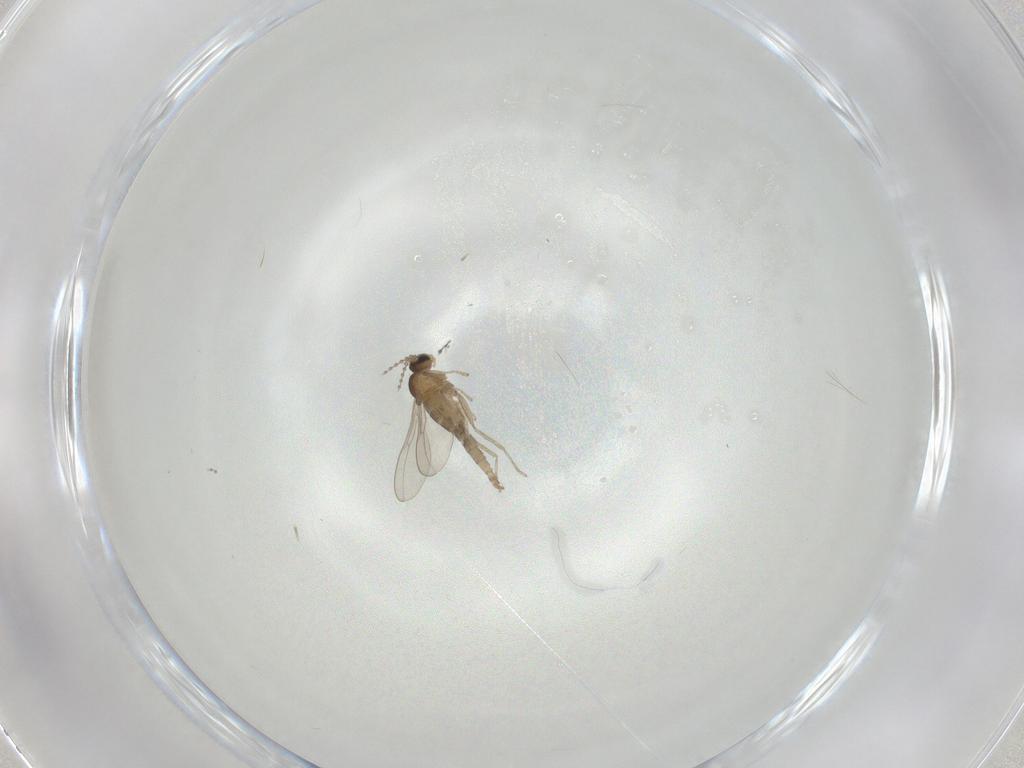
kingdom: Animalia
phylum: Arthropoda
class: Insecta
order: Diptera
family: Cecidomyiidae
